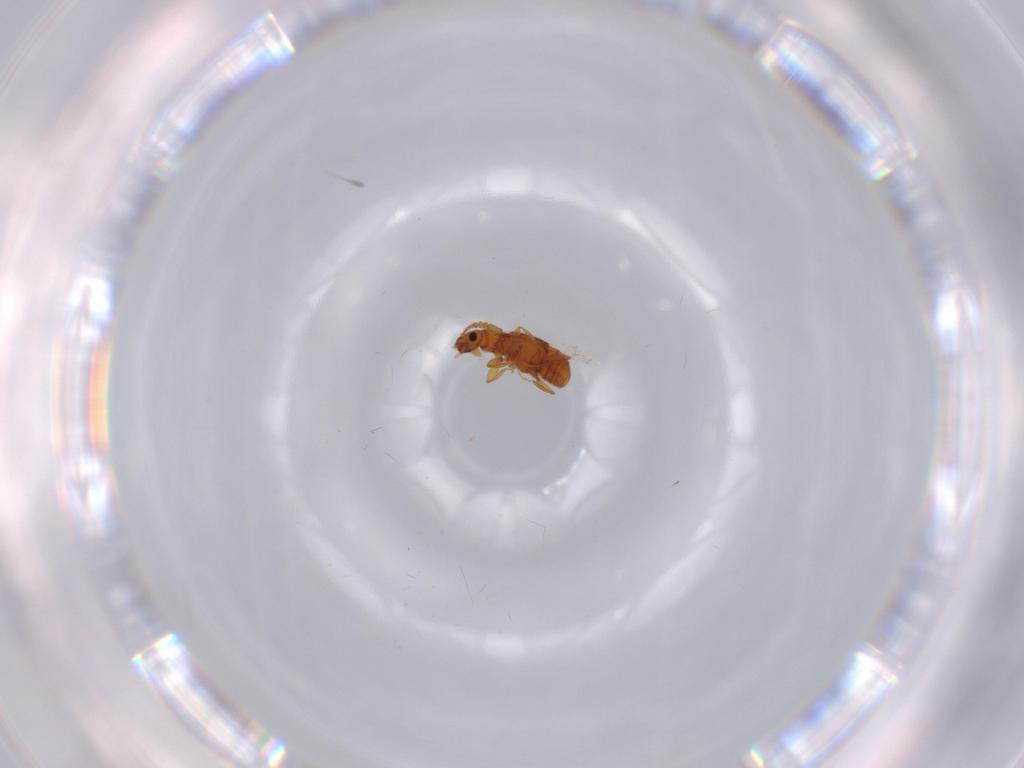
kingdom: Animalia
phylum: Arthropoda
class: Insecta
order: Coleoptera
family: Staphylinidae
